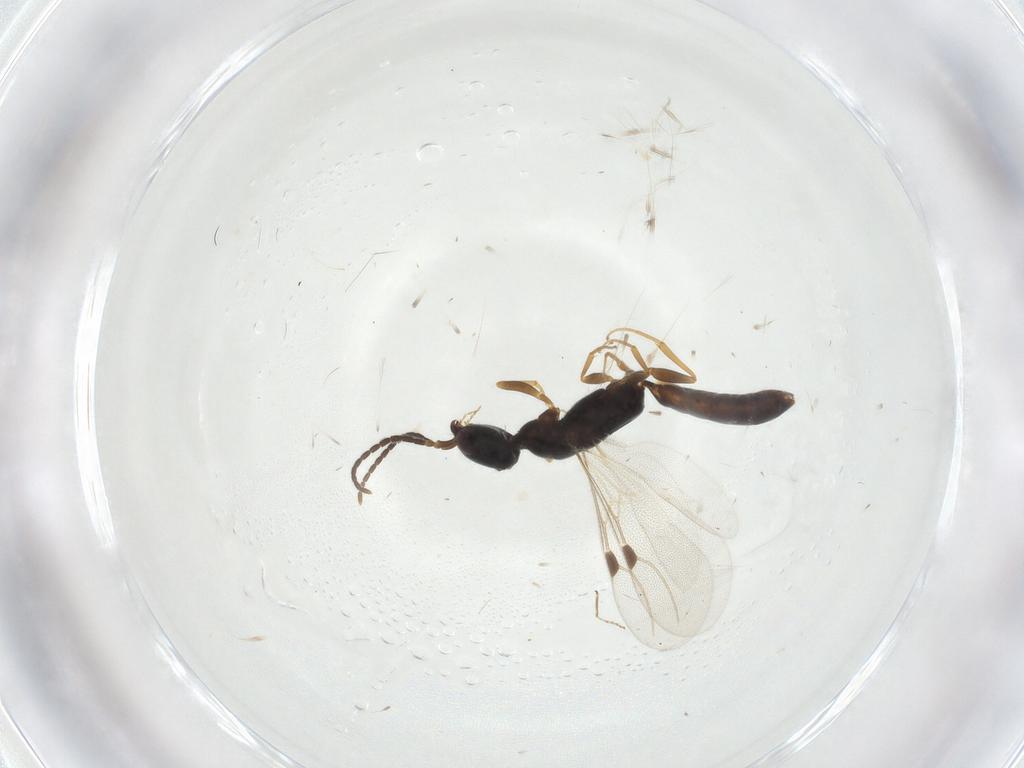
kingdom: Animalia
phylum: Arthropoda
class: Insecta
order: Hymenoptera
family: Bethylidae
